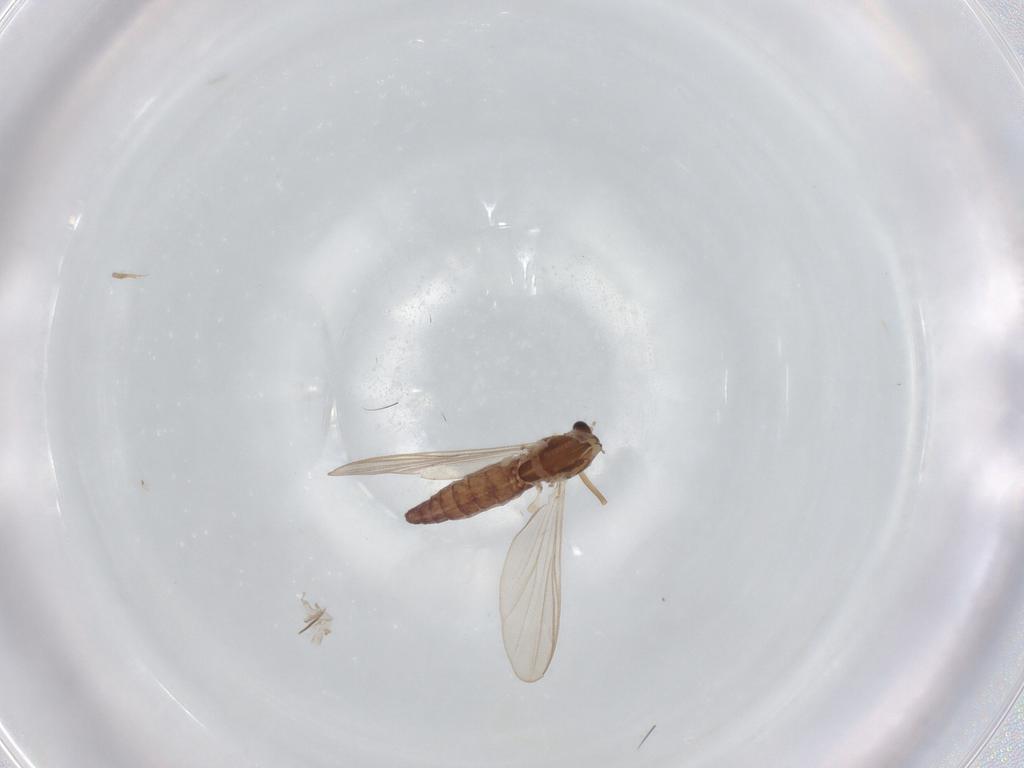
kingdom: Animalia
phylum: Arthropoda
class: Insecta
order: Diptera
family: Chironomidae
